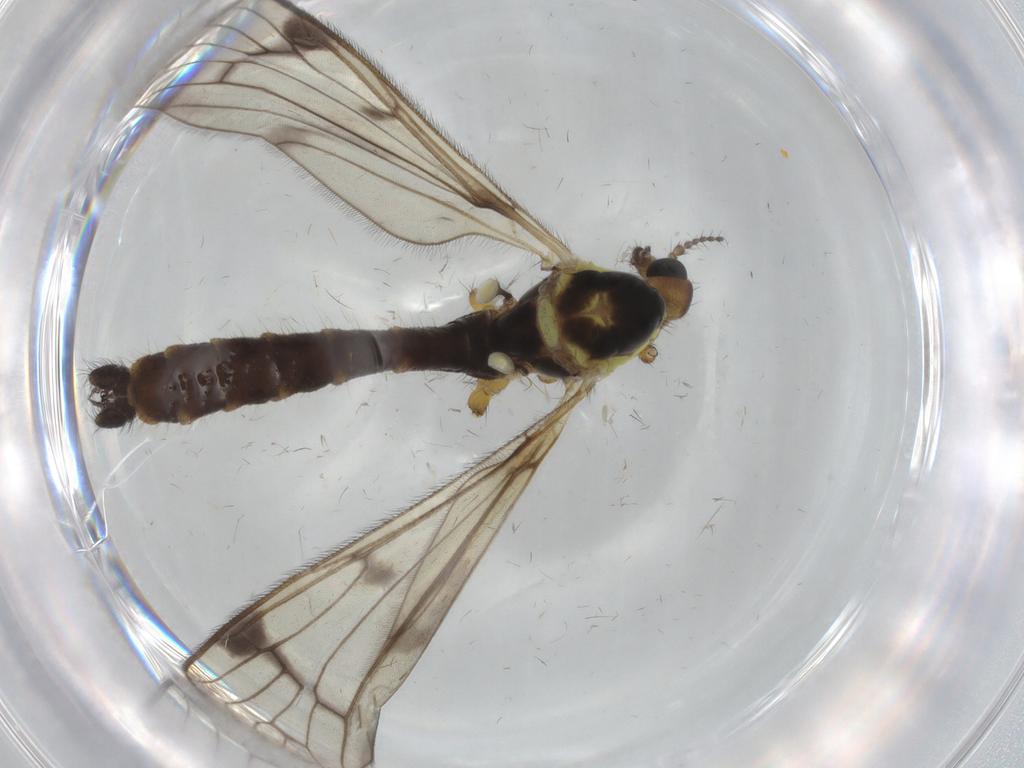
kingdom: Animalia
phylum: Arthropoda
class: Insecta
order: Diptera
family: Limoniidae
